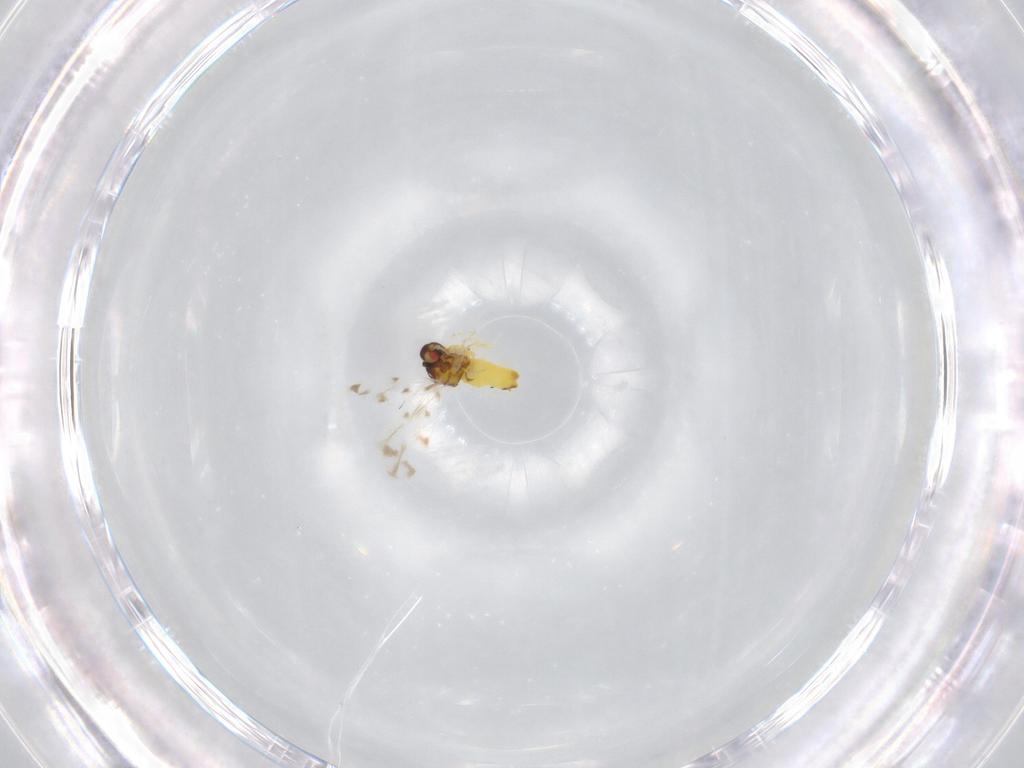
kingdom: Animalia
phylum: Arthropoda
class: Insecta
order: Hemiptera
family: Aleyrodidae
